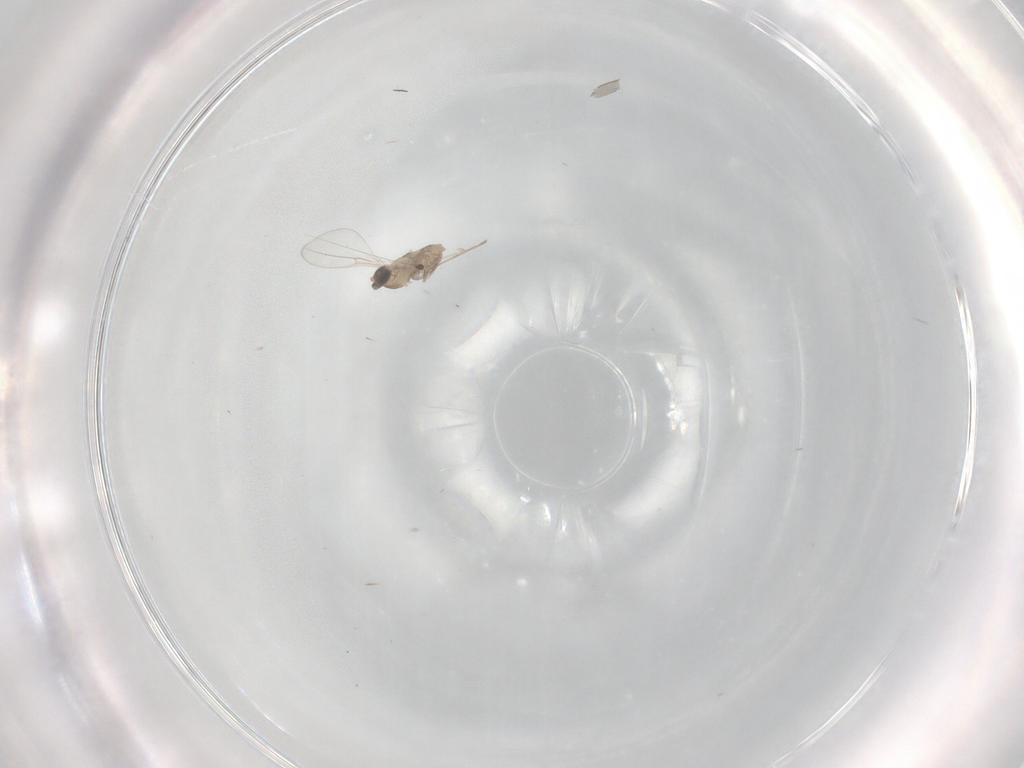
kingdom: Animalia
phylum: Arthropoda
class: Insecta
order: Diptera
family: Cecidomyiidae
